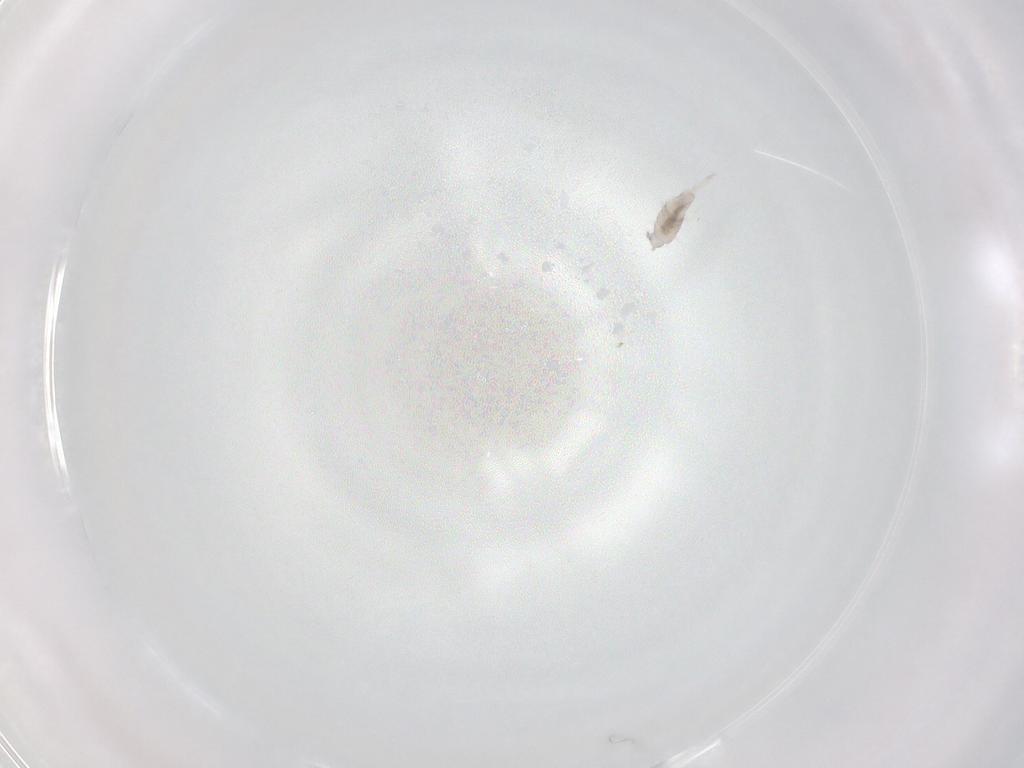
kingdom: Animalia
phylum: Arthropoda
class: Collembola
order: Entomobryomorpha
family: Entomobryidae
